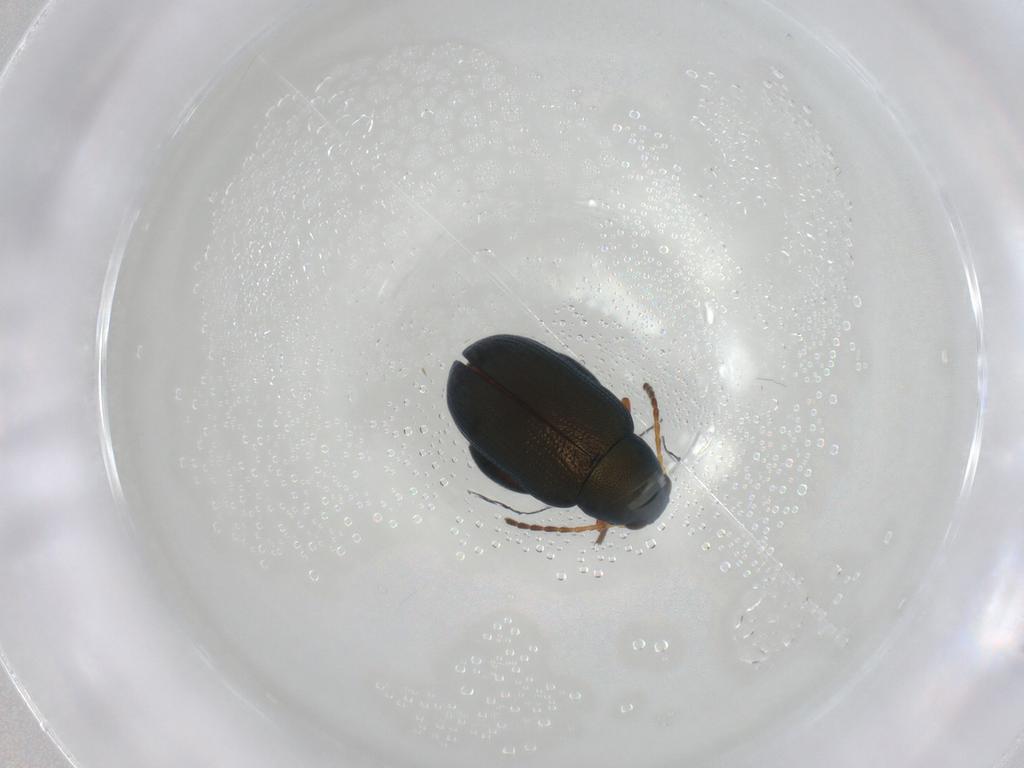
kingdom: Animalia
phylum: Arthropoda
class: Insecta
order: Coleoptera
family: Chrysomelidae
